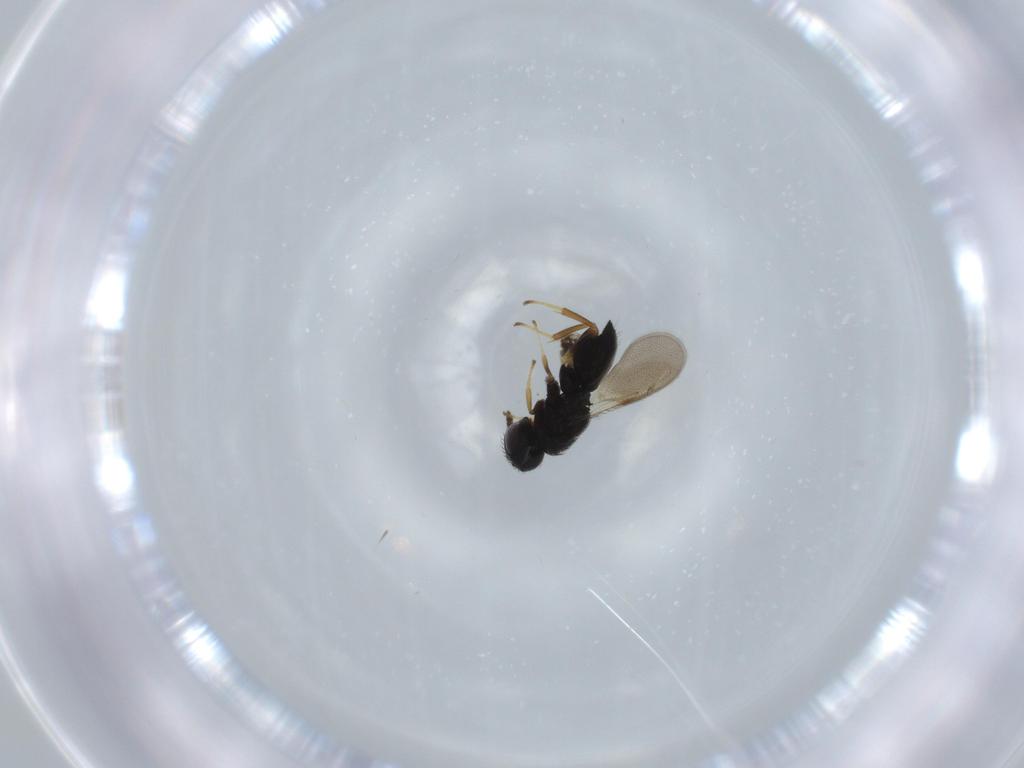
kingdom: Animalia
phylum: Arthropoda
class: Insecta
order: Hymenoptera
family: Pteromalidae
